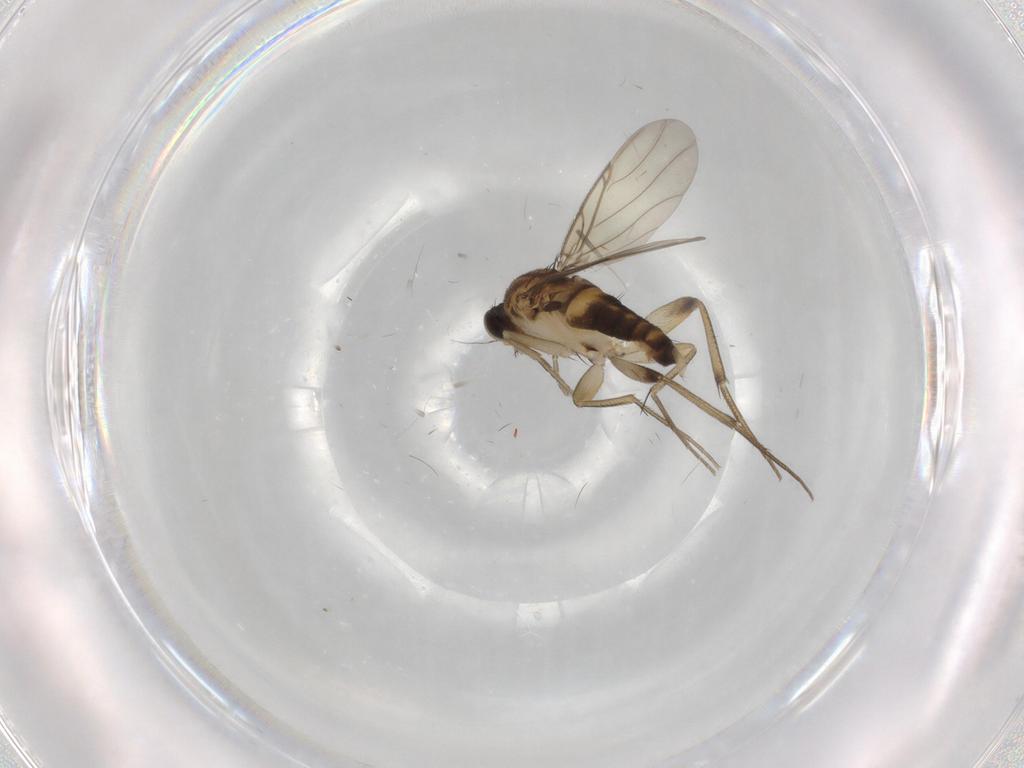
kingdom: Animalia
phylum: Arthropoda
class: Insecta
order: Diptera
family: Phoridae
